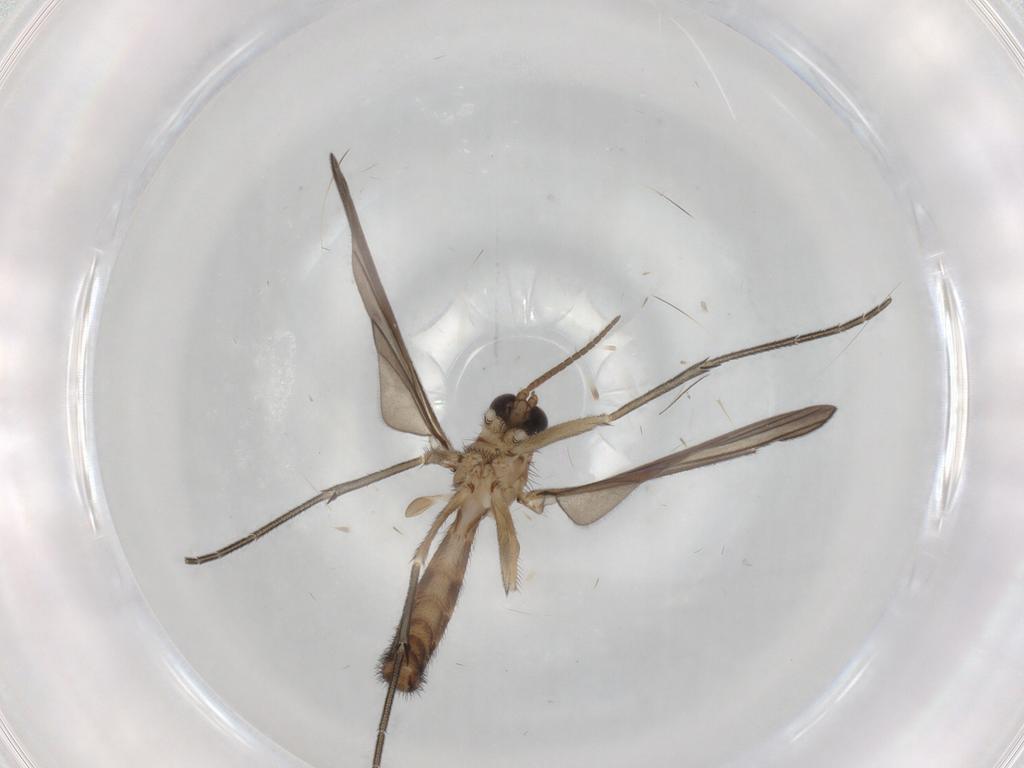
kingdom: Animalia
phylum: Arthropoda
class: Insecta
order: Diptera
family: Sciaridae
